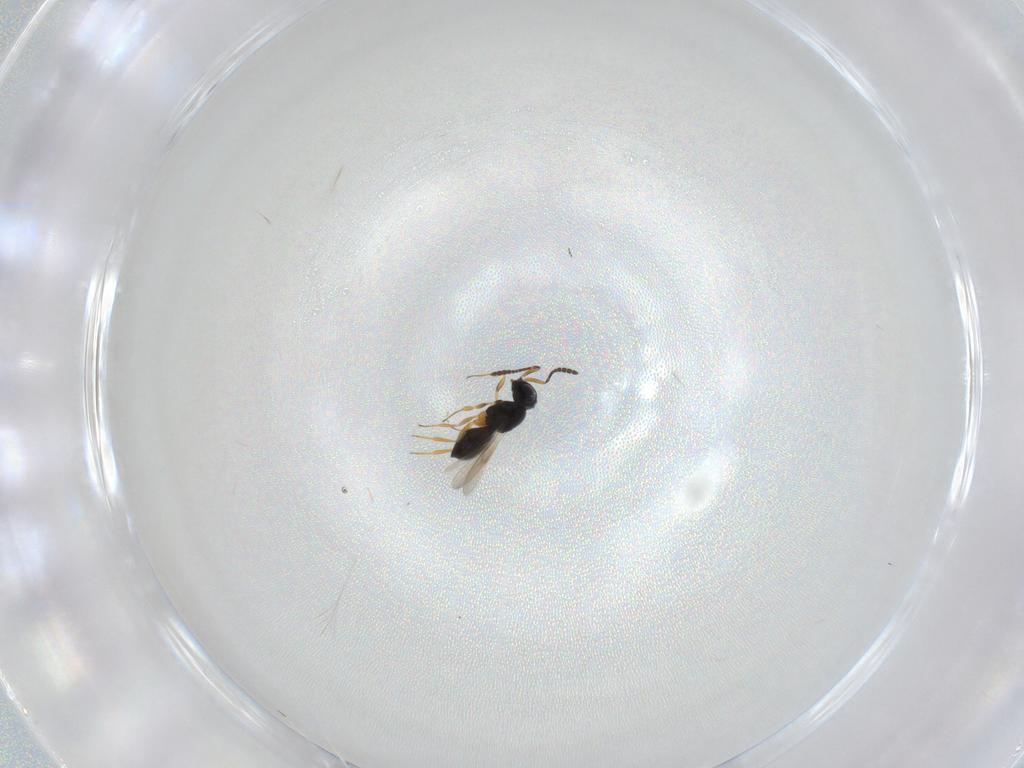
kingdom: Animalia
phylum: Arthropoda
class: Insecta
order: Hymenoptera
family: Scelionidae
